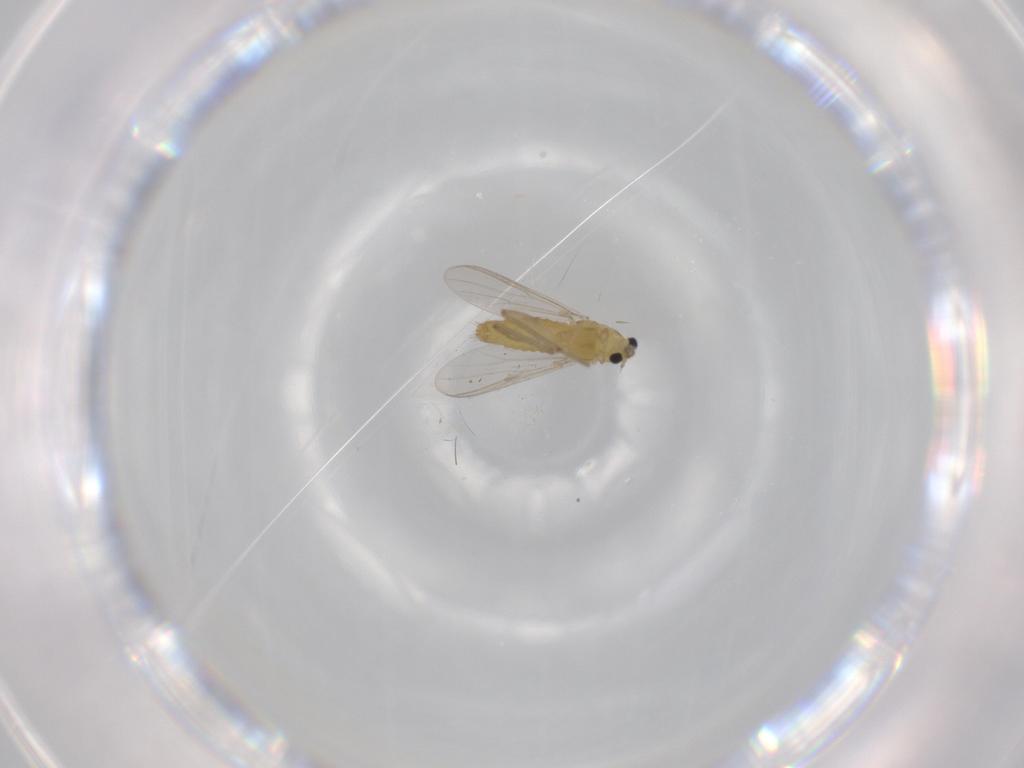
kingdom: Animalia
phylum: Arthropoda
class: Insecta
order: Diptera
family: Chironomidae
